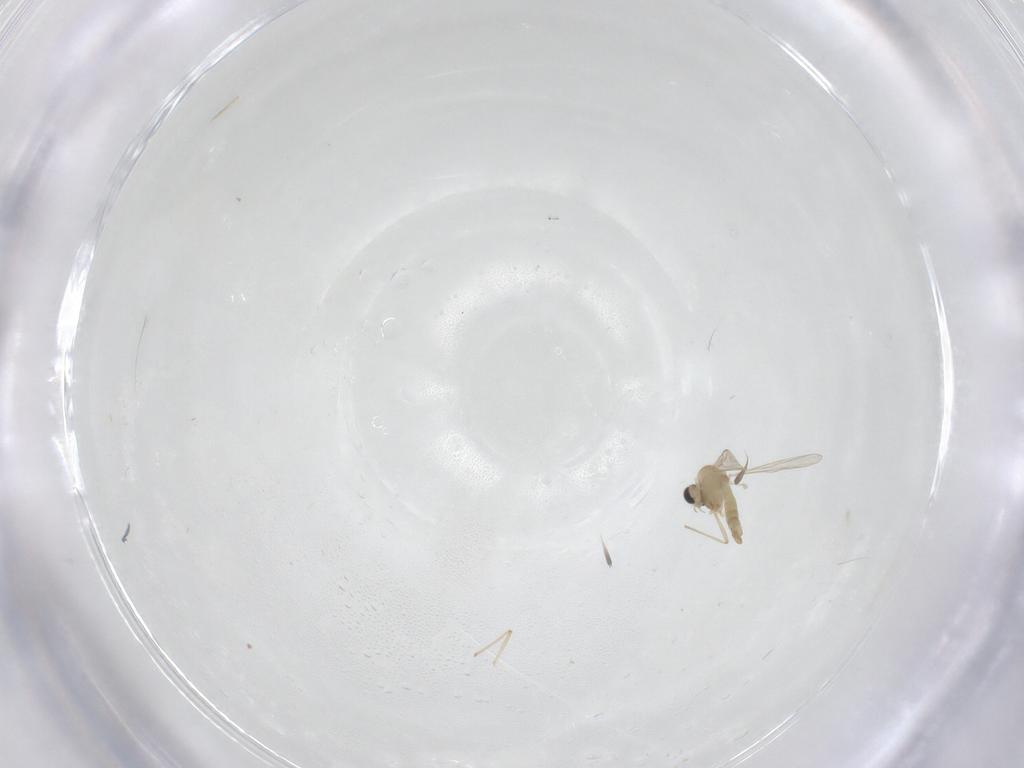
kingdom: Animalia
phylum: Arthropoda
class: Insecta
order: Diptera
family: Chironomidae
